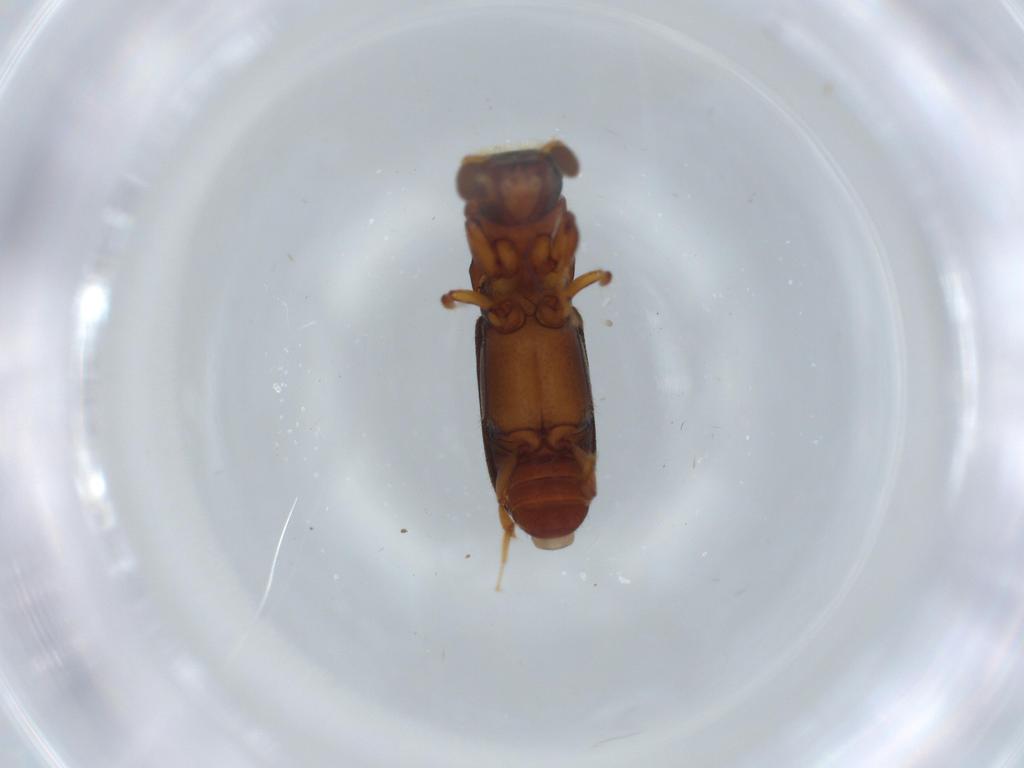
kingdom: Animalia
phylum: Arthropoda
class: Insecta
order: Coleoptera
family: Curculionidae
